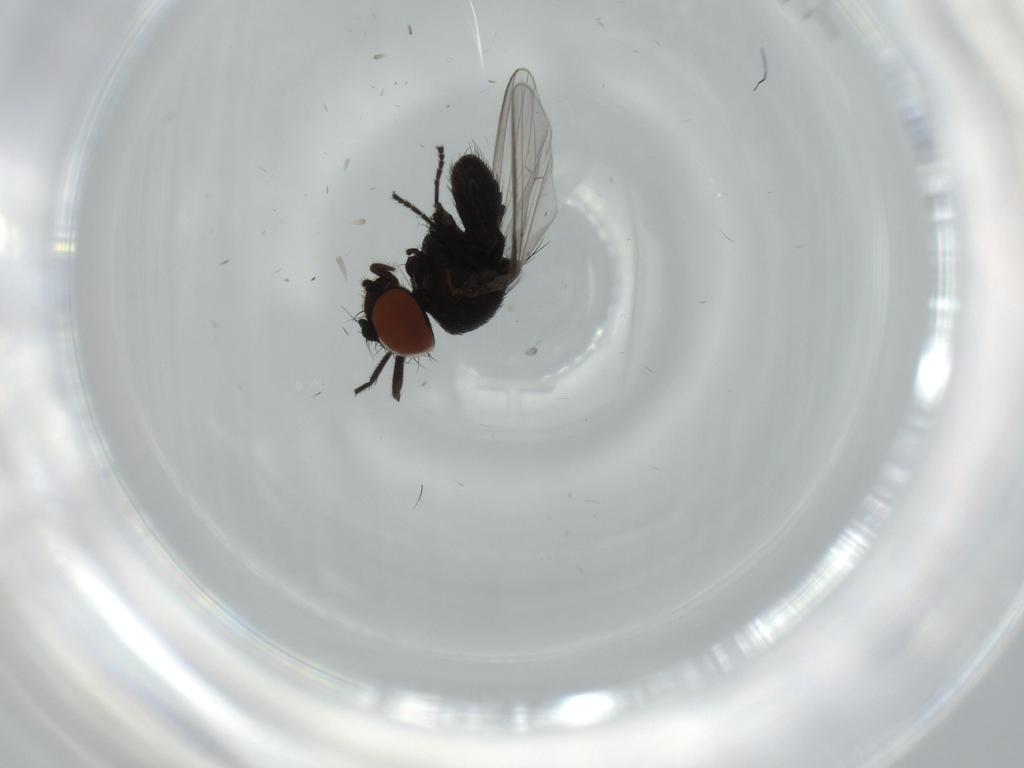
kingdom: Animalia
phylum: Arthropoda
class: Insecta
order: Diptera
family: Milichiidae
